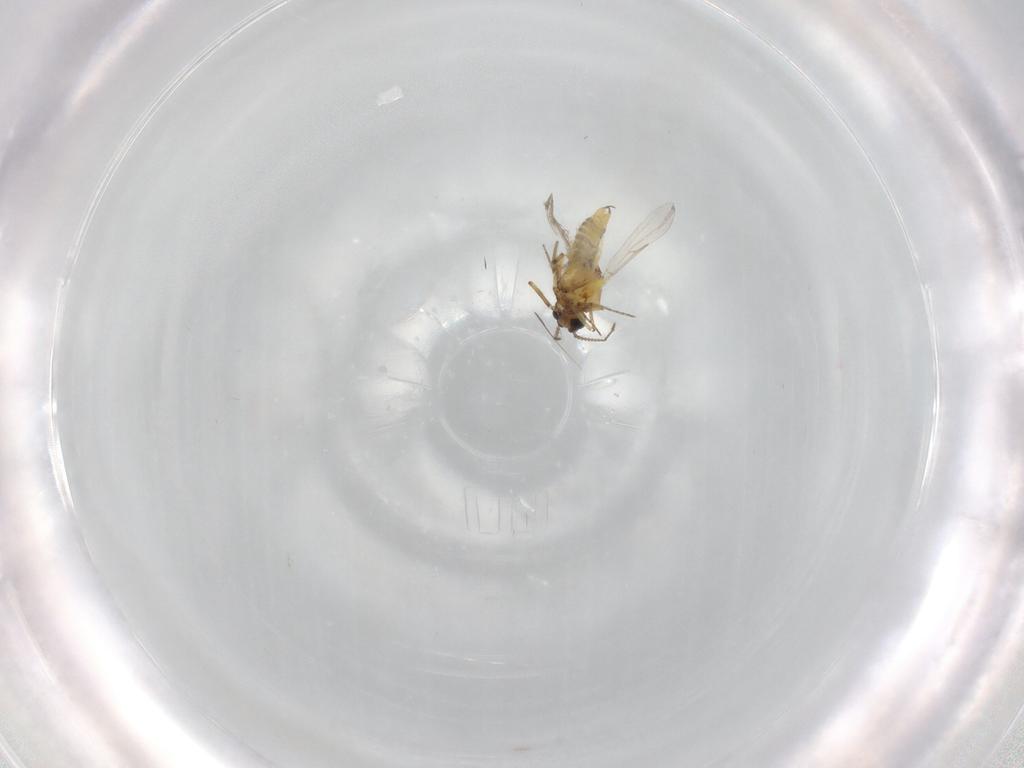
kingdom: Animalia
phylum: Arthropoda
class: Insecta
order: Diptera
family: Ceratopogonidae
